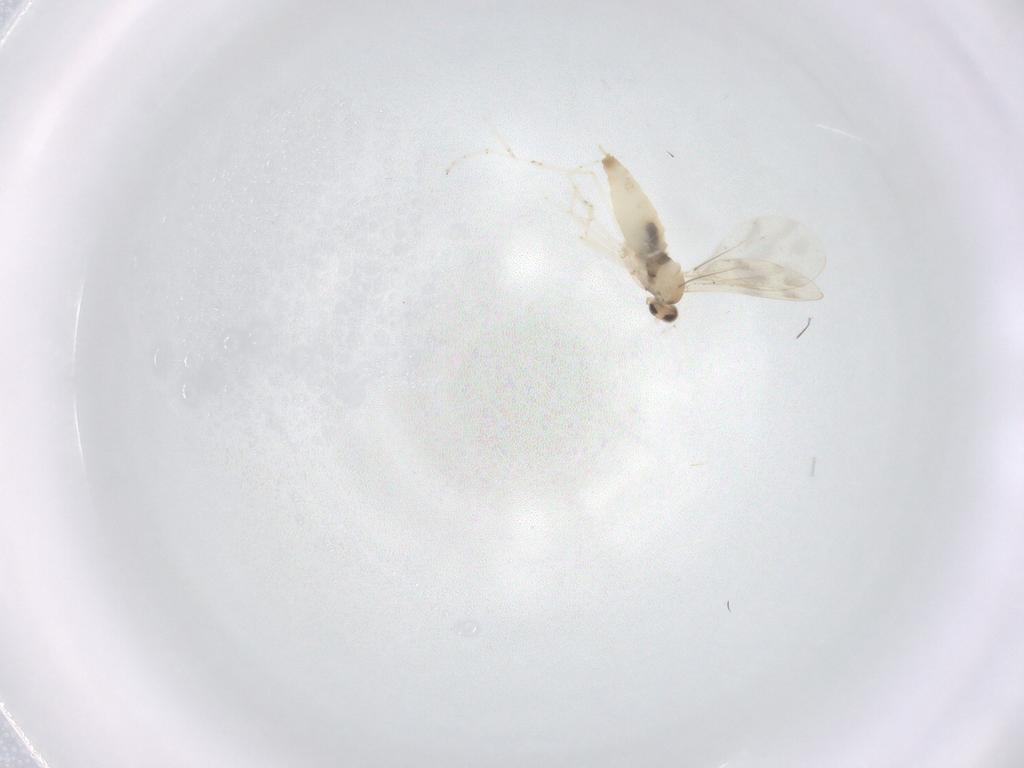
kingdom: Animalia
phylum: Arthropoda
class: Insecta
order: Diptera
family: Cecidomyiidae
